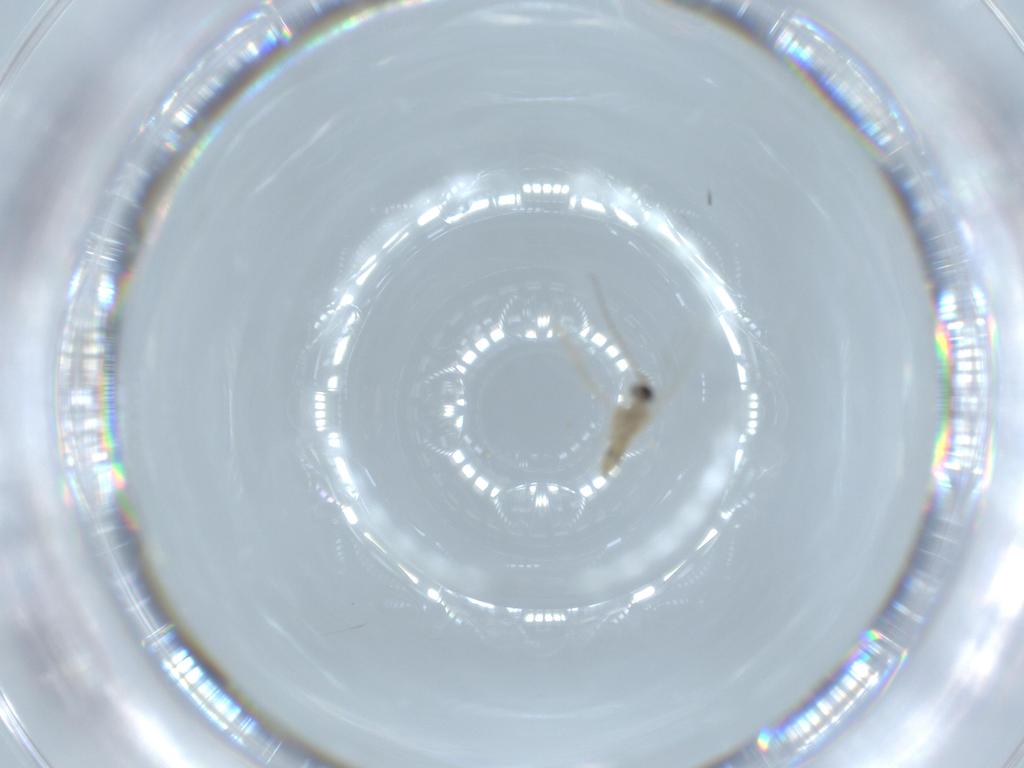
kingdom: Animalia
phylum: Arthropoda
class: Insecta
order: Diptera
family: Cecidomyiidae
